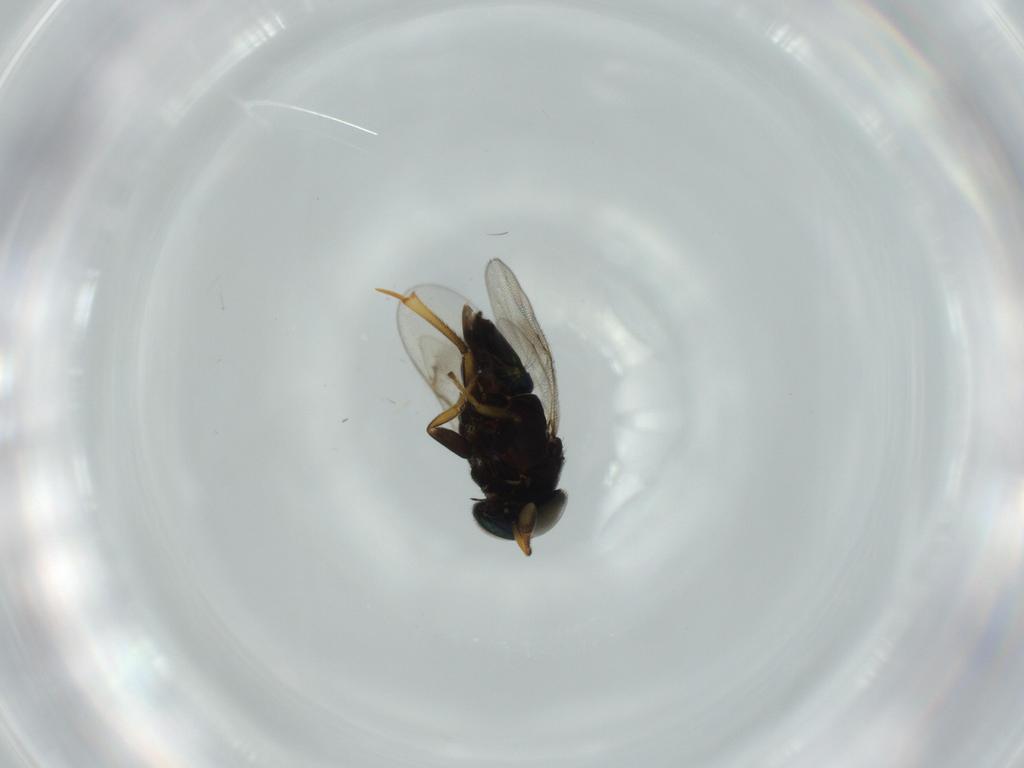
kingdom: Animalia
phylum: Arthropoda
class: Insecta
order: Hymenoptera
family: Encyrtidae
